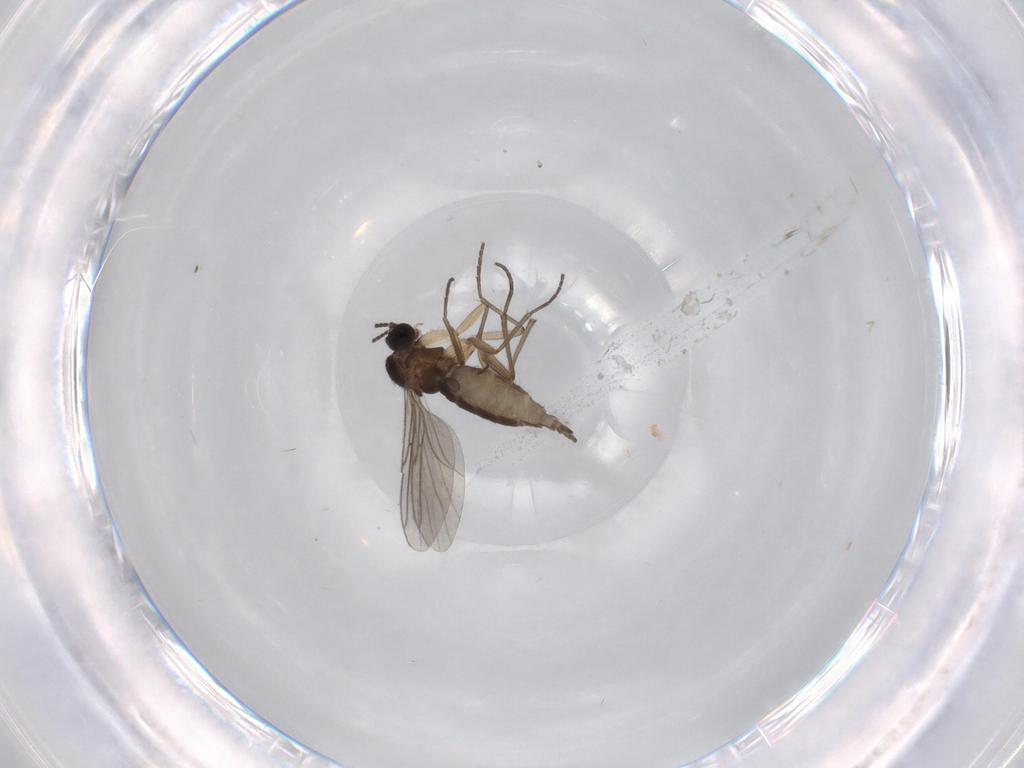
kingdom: Animalia
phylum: Arthropoda
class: Insecta
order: Diptera
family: Sciaridae
